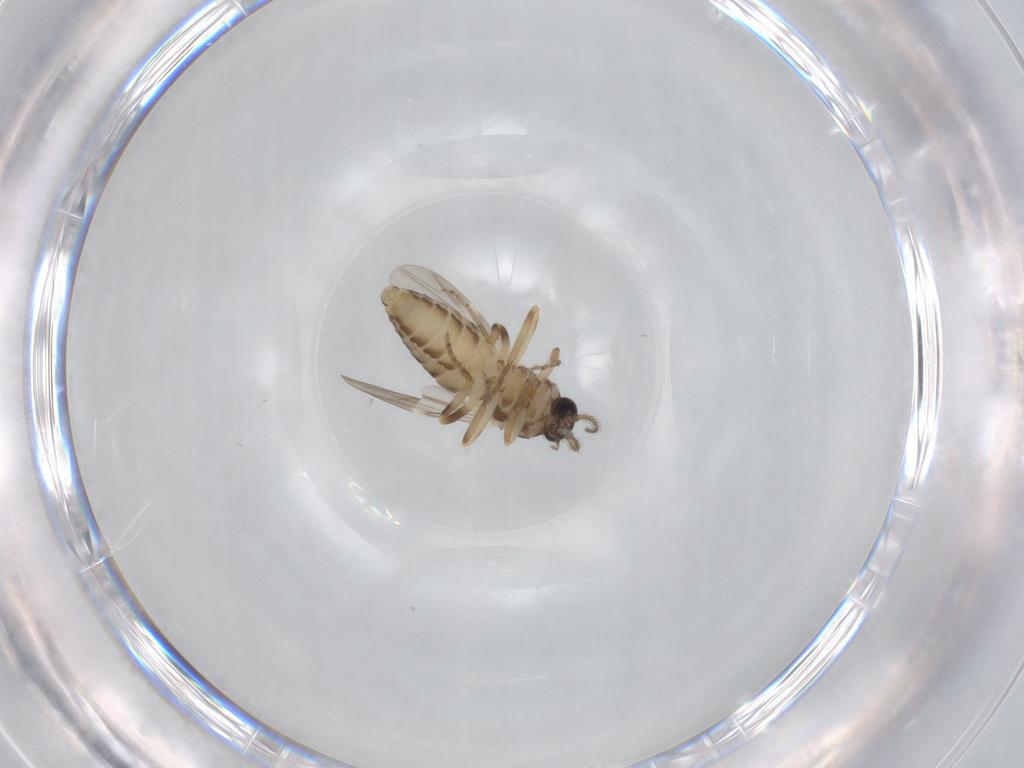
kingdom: Animalia
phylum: Arthropoda
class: Insecta
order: Diptera
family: Ceratopogonidae
